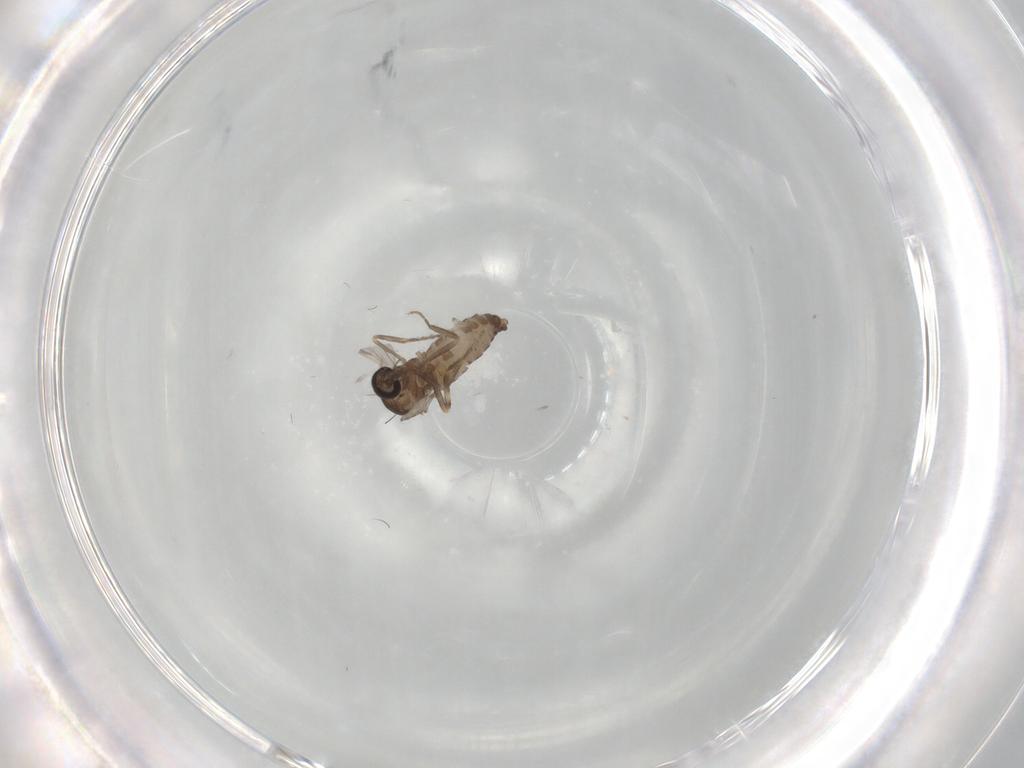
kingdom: Animalia
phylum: Arthropoda
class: Insecta
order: Diptera
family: Ceratopogonidae
